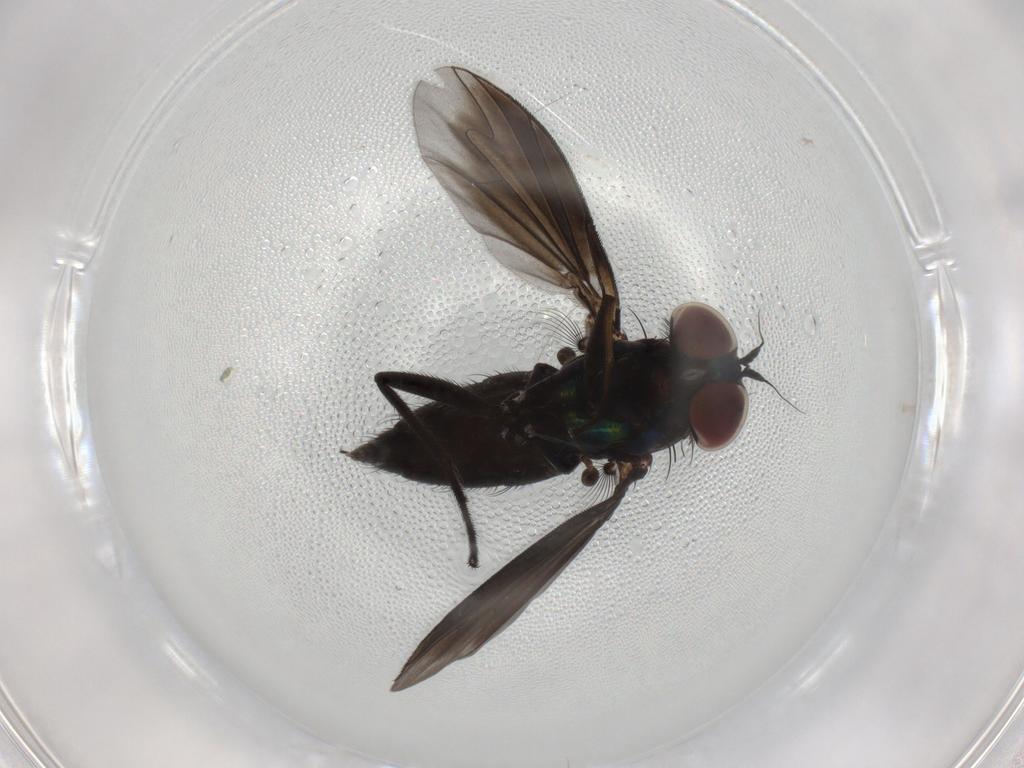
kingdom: Animalia
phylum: Arthropoda
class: Insecta
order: Diptera
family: Dolichopodidae
